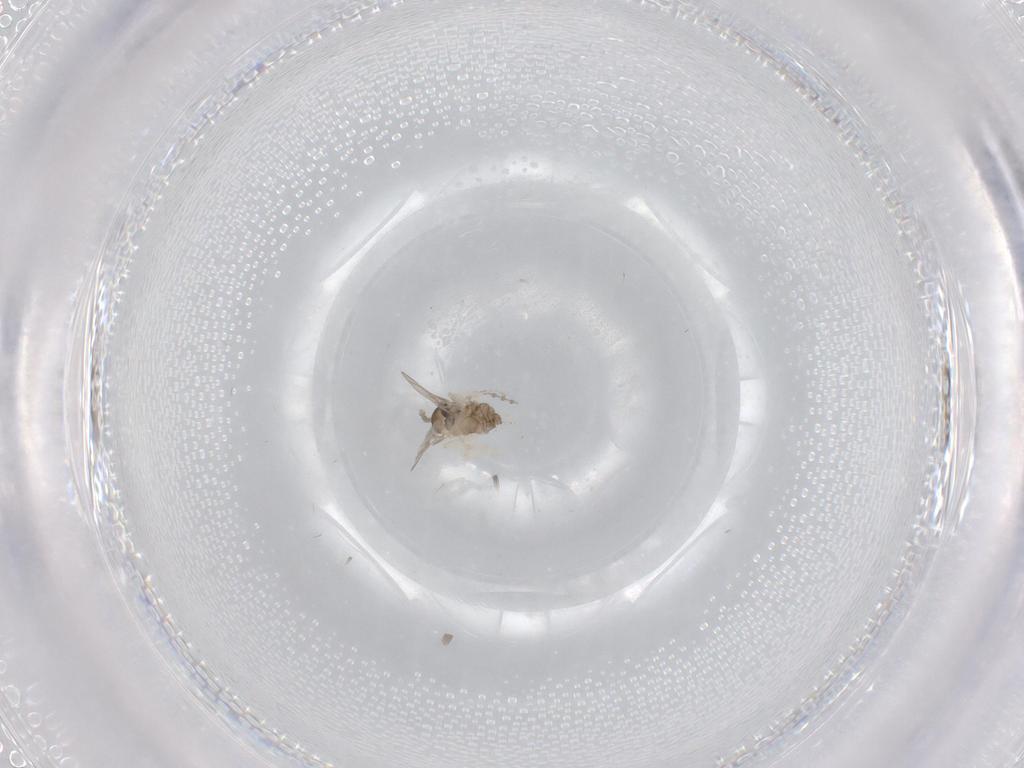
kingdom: Animalia
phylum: Arthropoda
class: Insecta
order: Diptera
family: Cecidomyiidae
